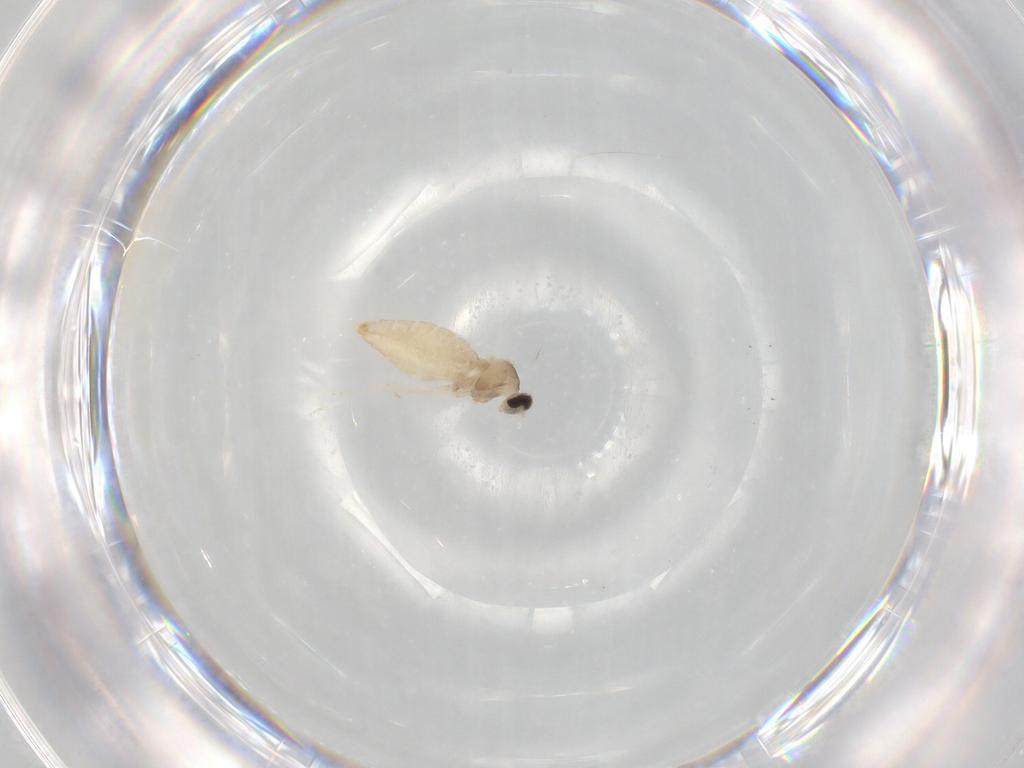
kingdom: Animalia
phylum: Arthropoda
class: Insecta
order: Diptera
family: Cecidomyiidae
